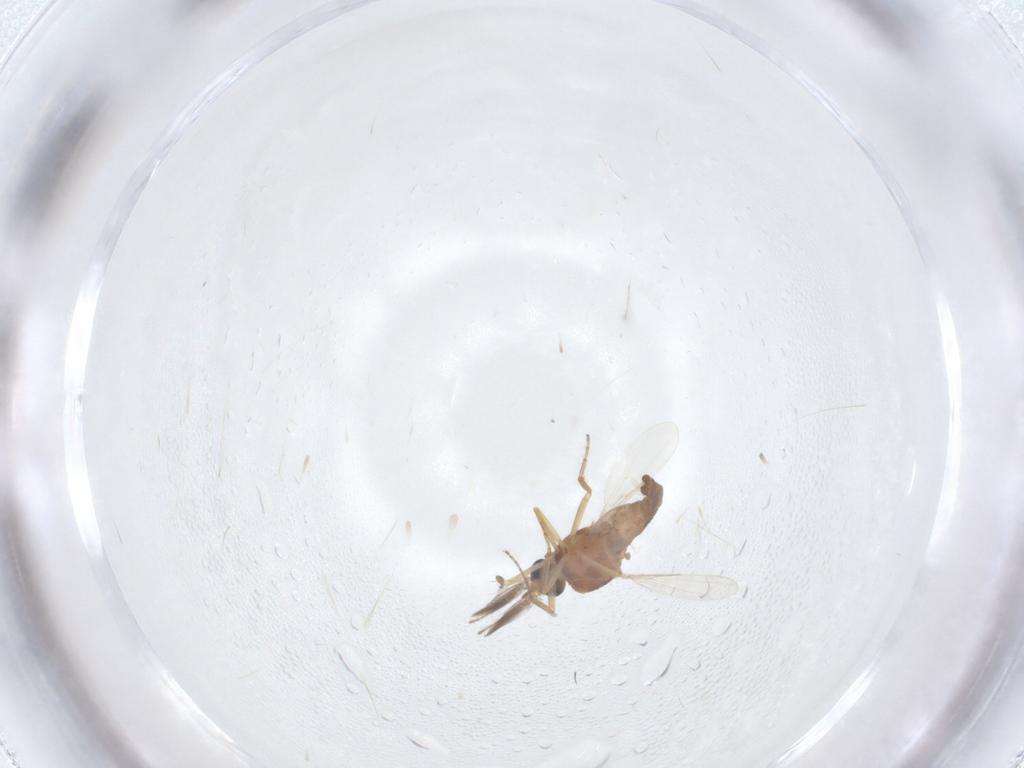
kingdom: Animalia
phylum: Arthropoda
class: Insecta
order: Diptera
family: Ceratopogonidae
